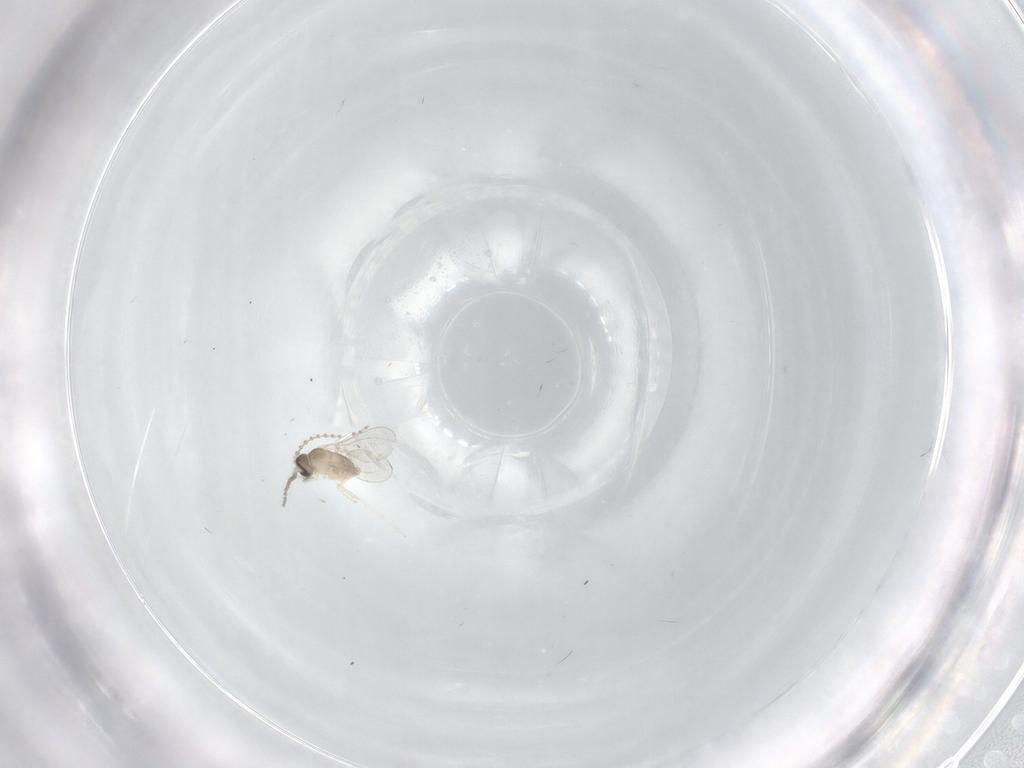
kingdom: Animalia
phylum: Arthropoda
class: Insecta
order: Diptera
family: Cecidomyiidae
